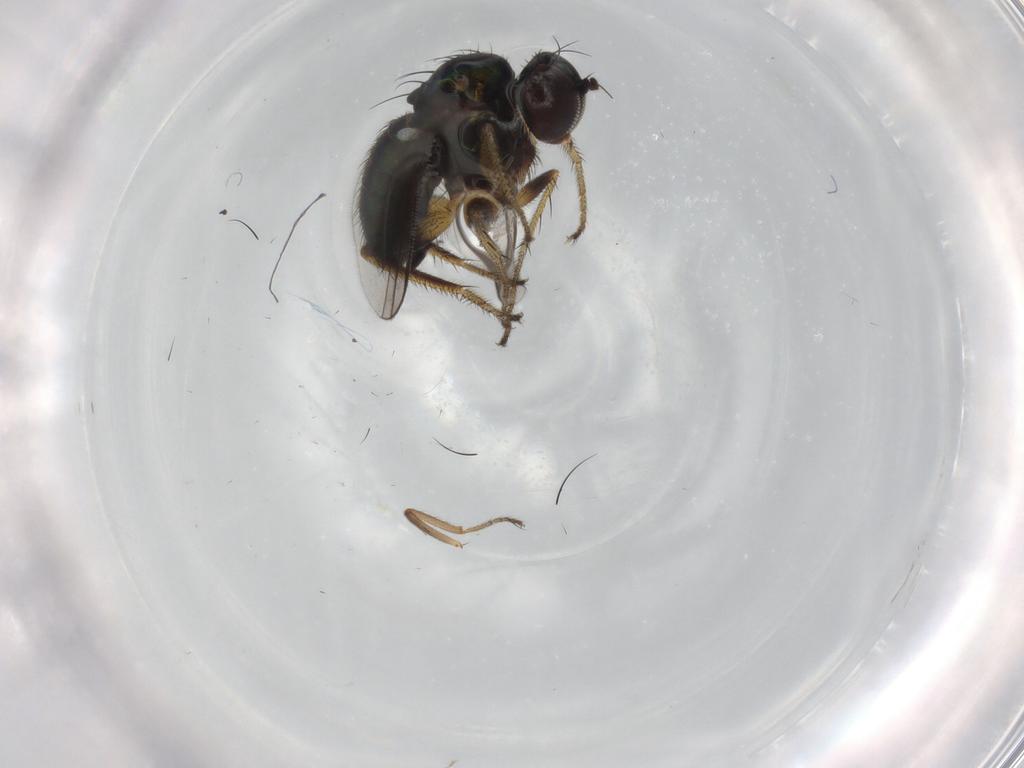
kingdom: Animalia
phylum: Arthropoda
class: Insecta
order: Diptera
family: Dolichopodidae
